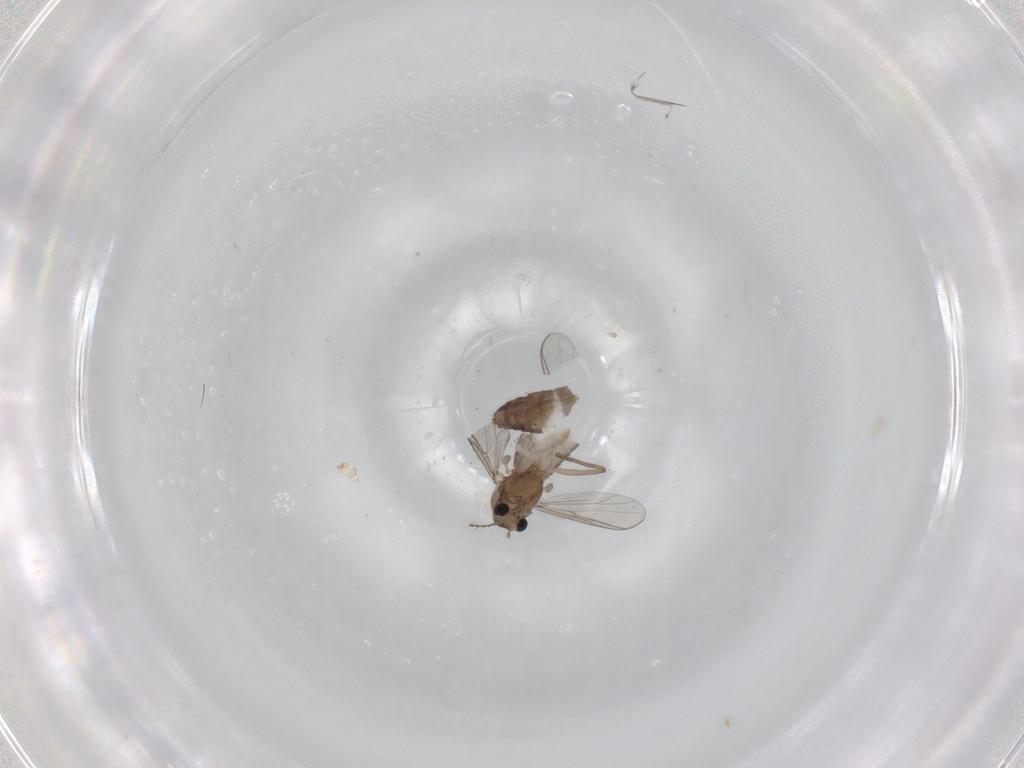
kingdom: Animalia
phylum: Arthropoda
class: Insecta
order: Diptera
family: Chironomidae
